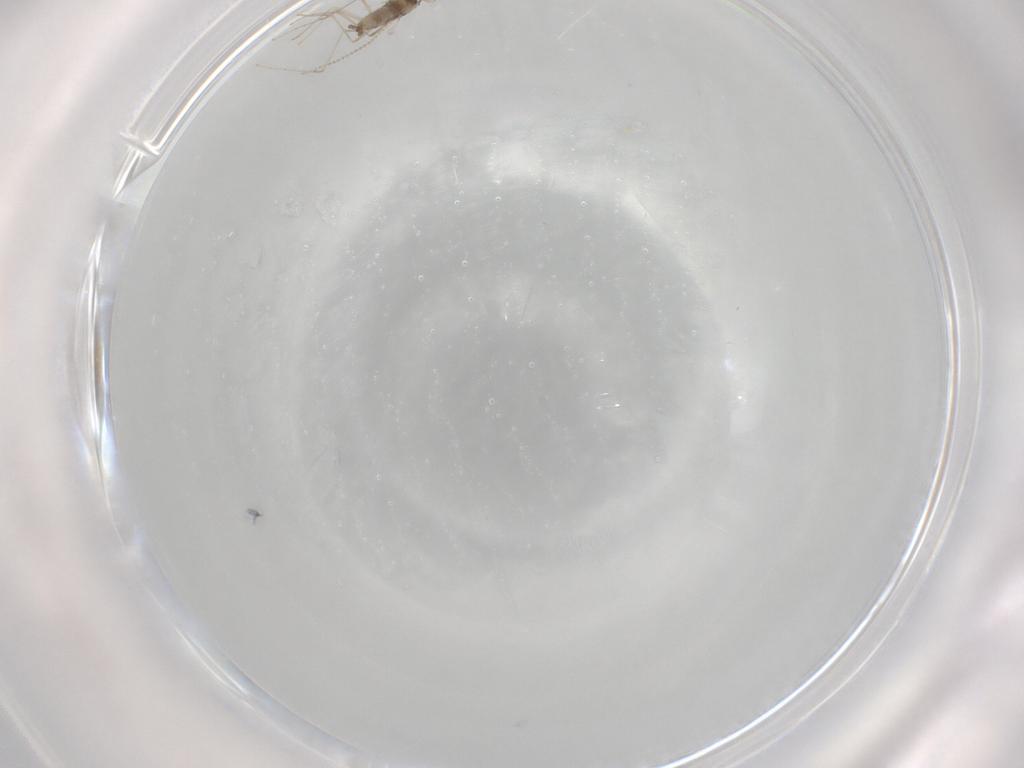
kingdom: Animalia
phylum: Arthropoda
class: Insecta
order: Diptera
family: Cecidomyiidae
